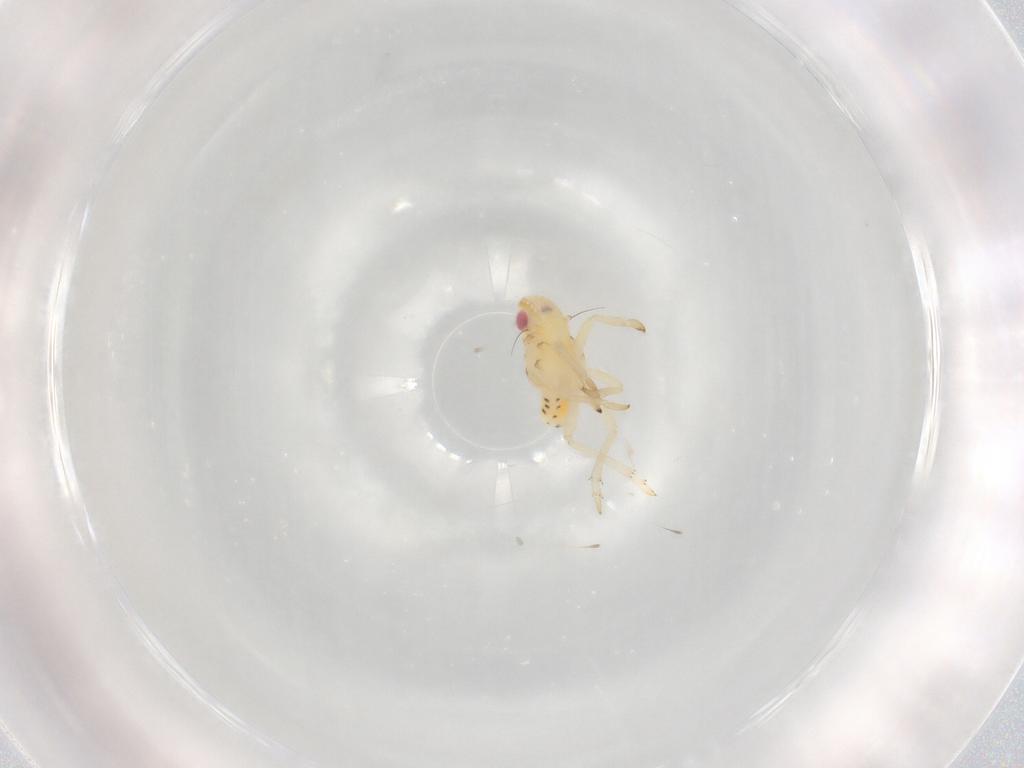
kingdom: Animalia
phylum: Arthropoda
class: Insecta
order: Hemiptera
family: Tropiduchidae
